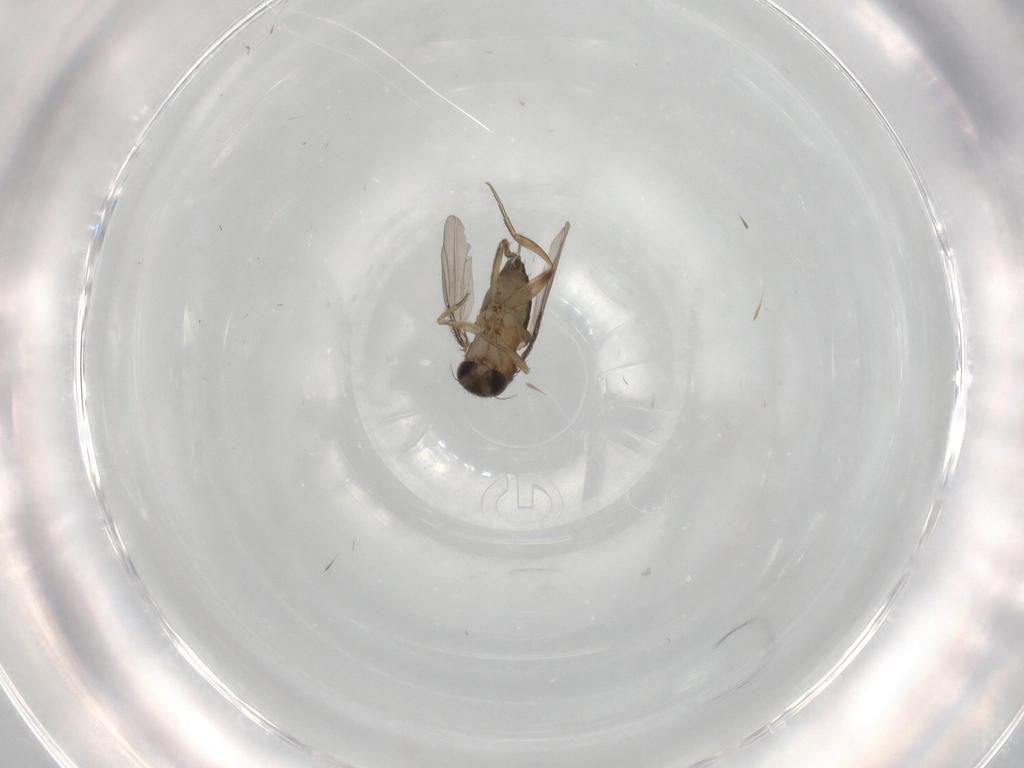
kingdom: Animalia
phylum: Arthropoda
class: Insecta
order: Diptera
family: Phoridae
